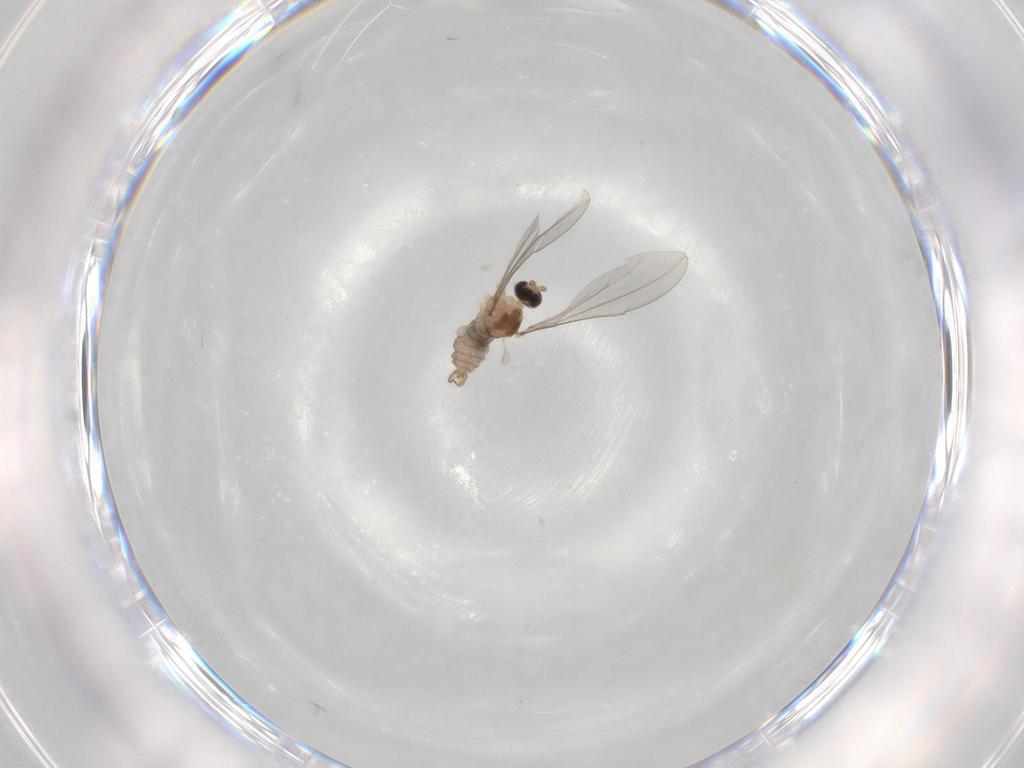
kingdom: Animalia
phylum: Arthropoda
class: Insecta
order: Diptera
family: Cecidomyiidae
